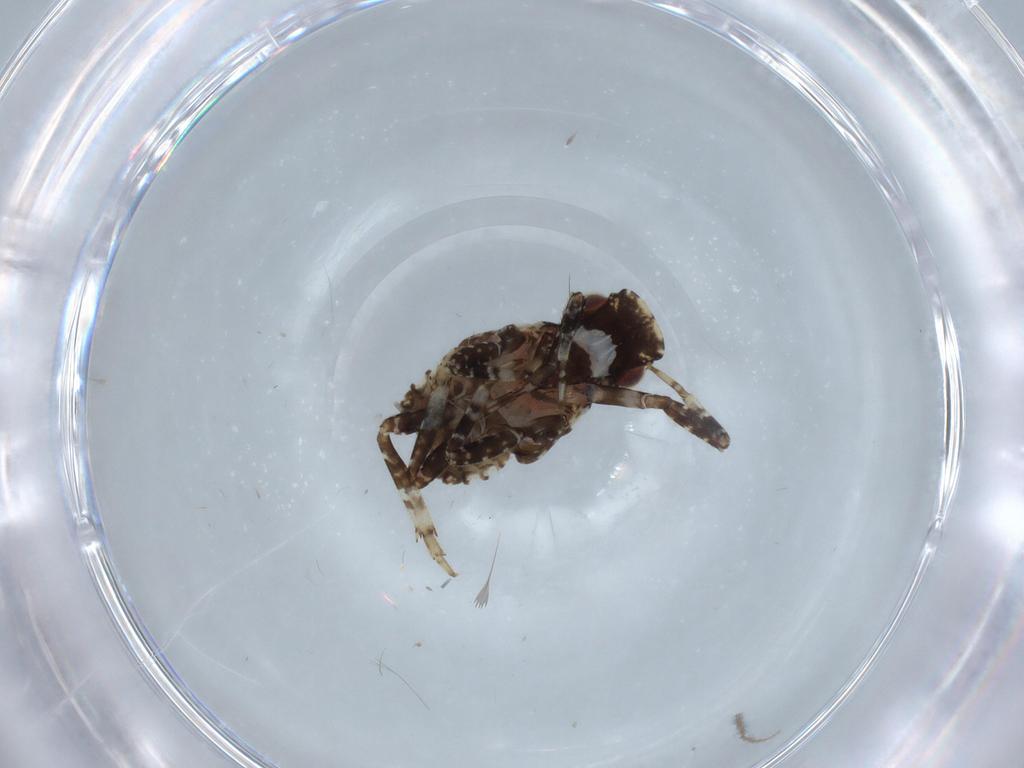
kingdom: Animalia
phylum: Arthropoda
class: Insecta
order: Hemiptera
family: Fulgoridae
